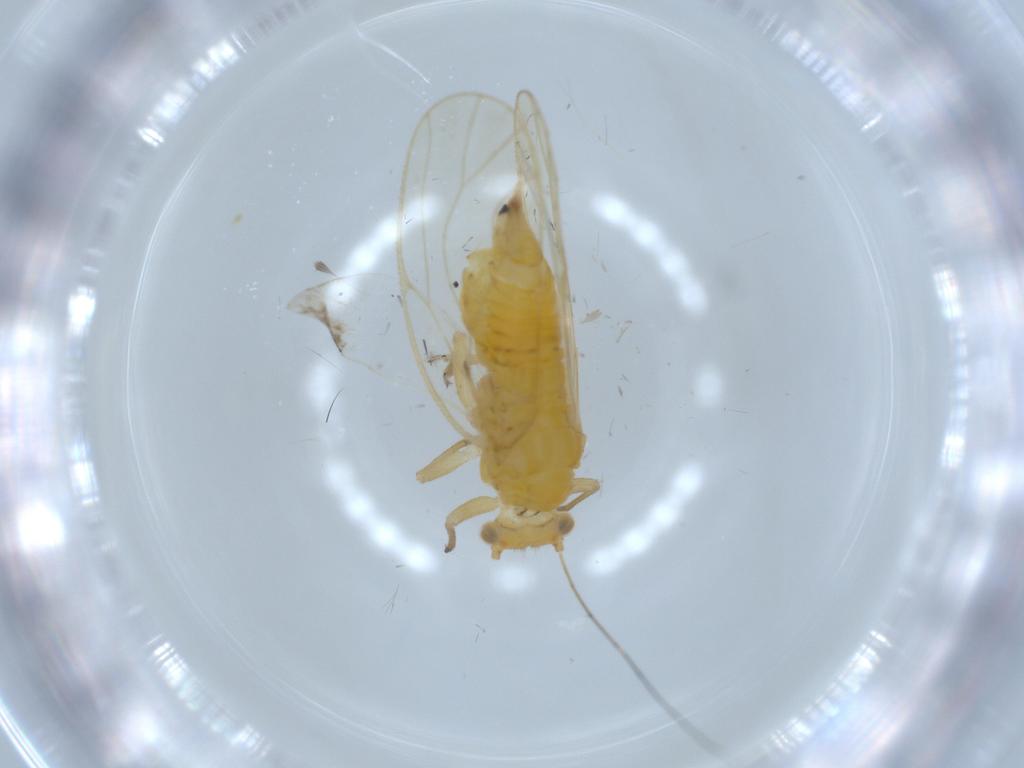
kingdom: Animalia
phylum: Arthropoda
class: Insecta
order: Hemiptera
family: Psyllidae
